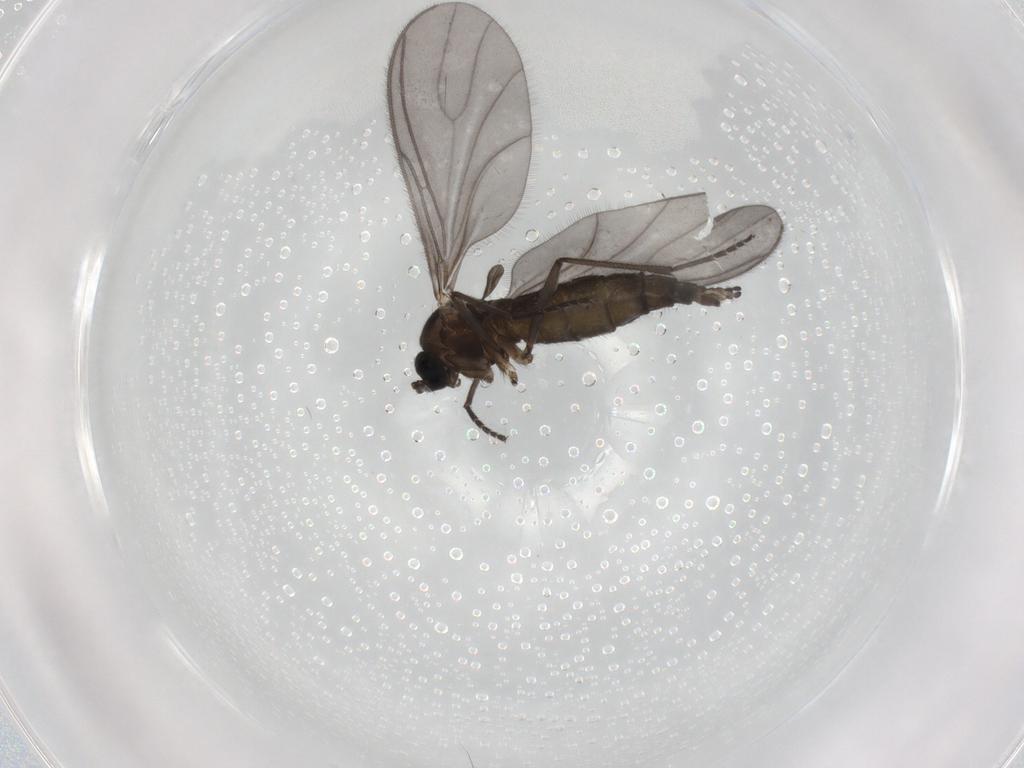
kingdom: Animalia
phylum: Arthropoda
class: Insecta
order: Diptera
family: Sciaridae
